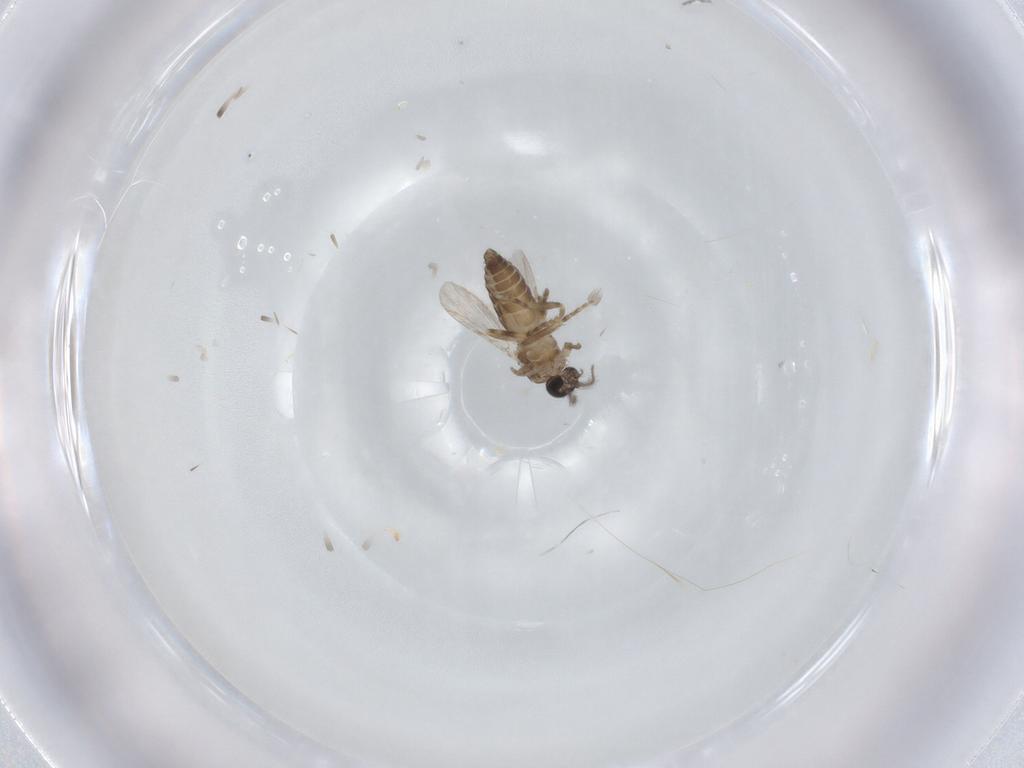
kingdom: Animalia
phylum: Arthropoda
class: Insecta
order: Diptera
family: Ceratopogonidae
